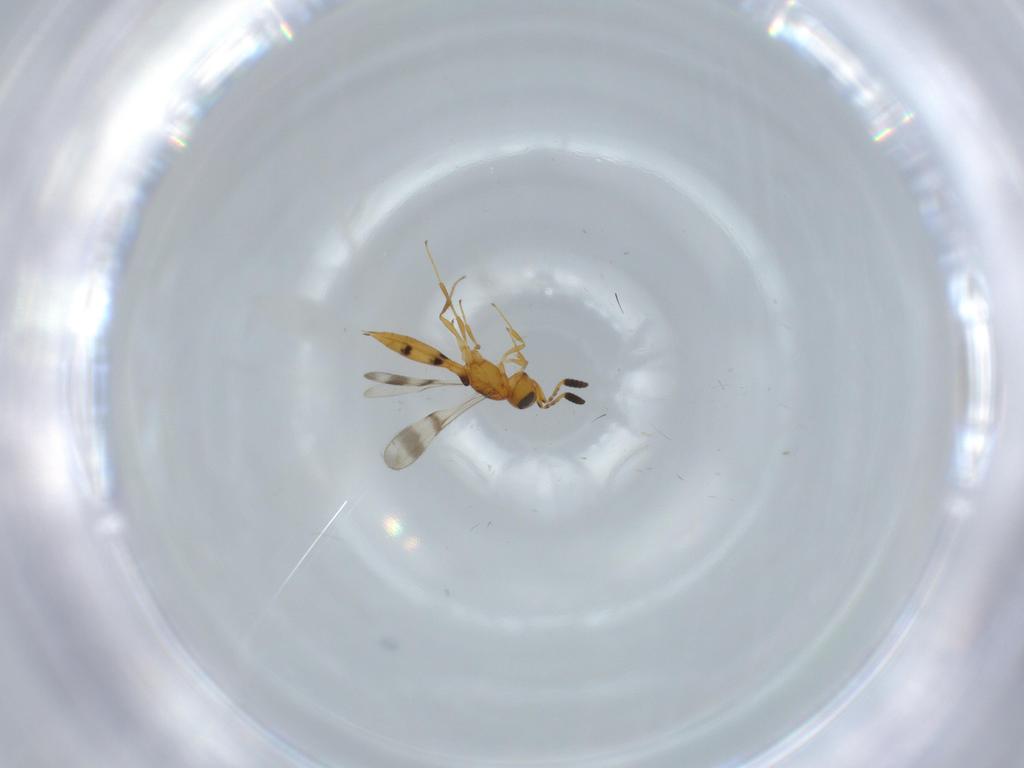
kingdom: Animalia
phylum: Arthropoda
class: Insecta
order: Hymenoptera
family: Scelionidae
